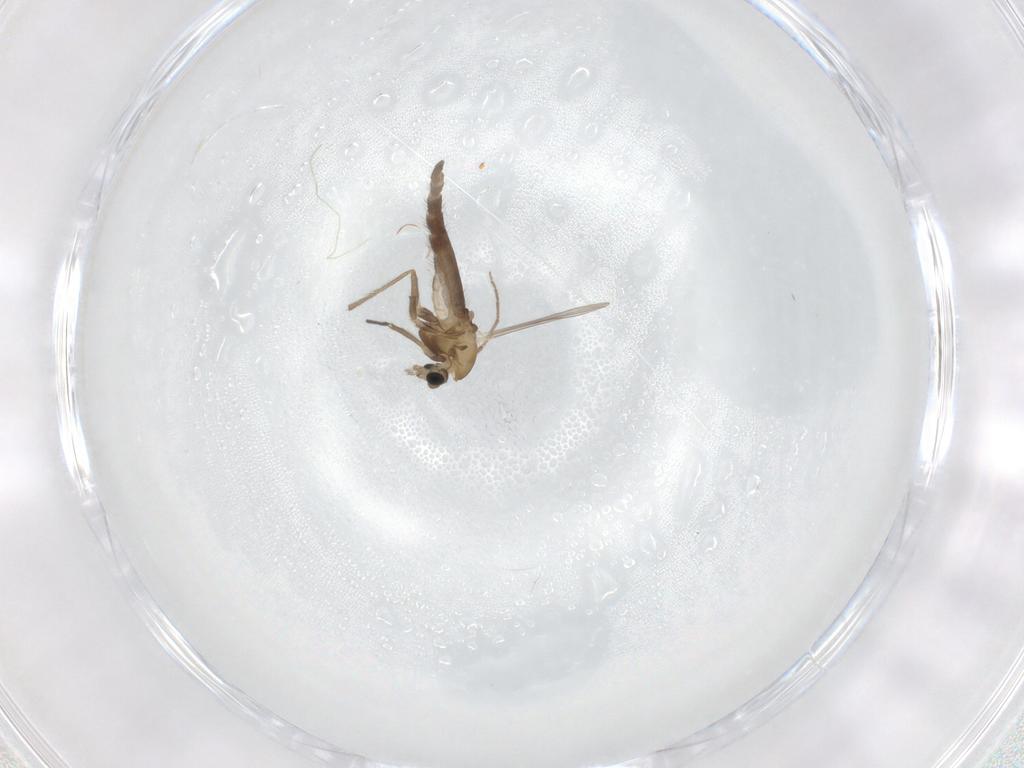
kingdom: Animalia
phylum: Arthropoda
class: Insecta
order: Diptera
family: Chironomidae
